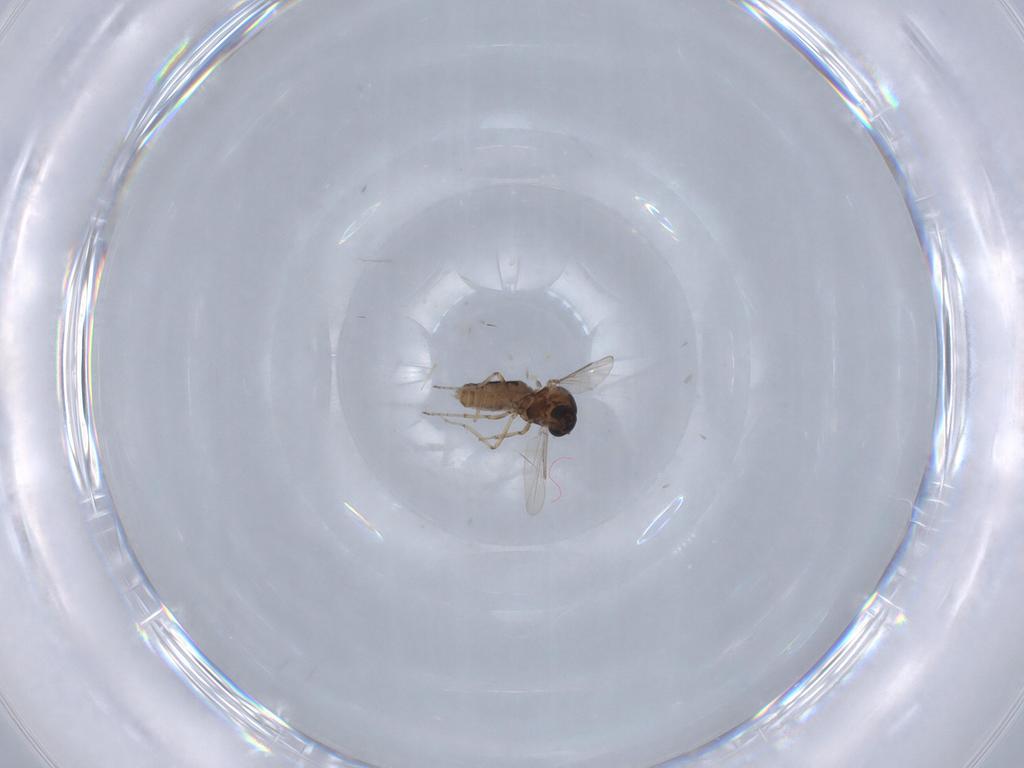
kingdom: Animalia
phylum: Arthropoda
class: Insecta
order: Diptera
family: Ceratopogonidae
